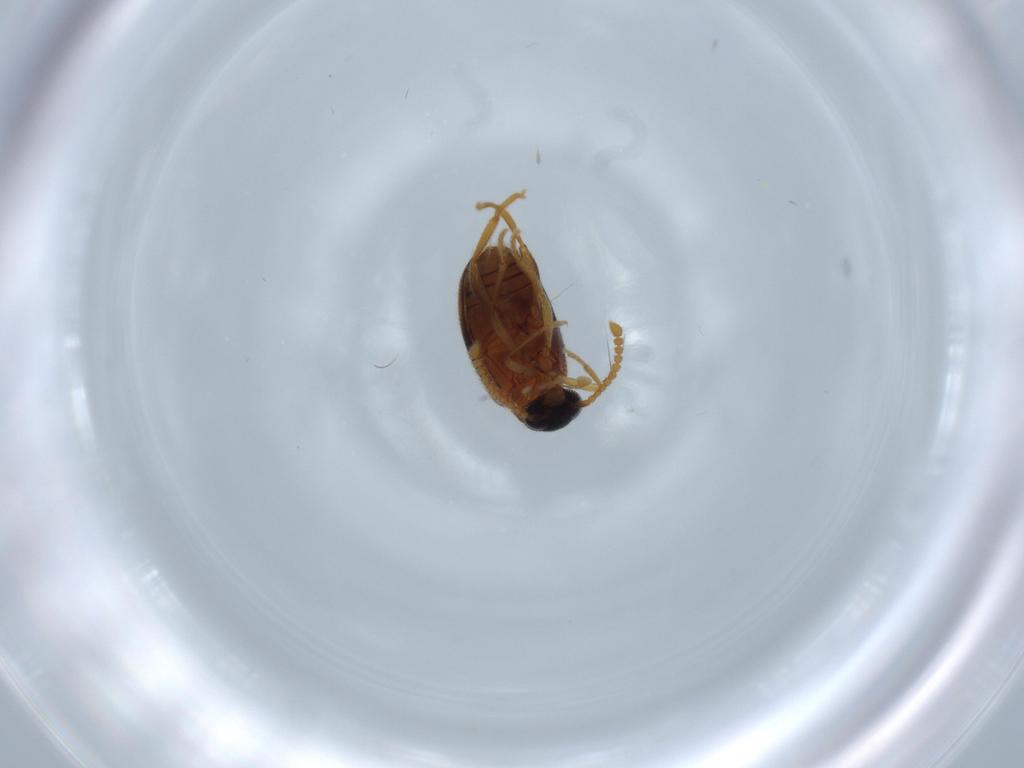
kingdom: Animalia
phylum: Arthropoda
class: Insecta
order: Coleoptera
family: Aderidae
